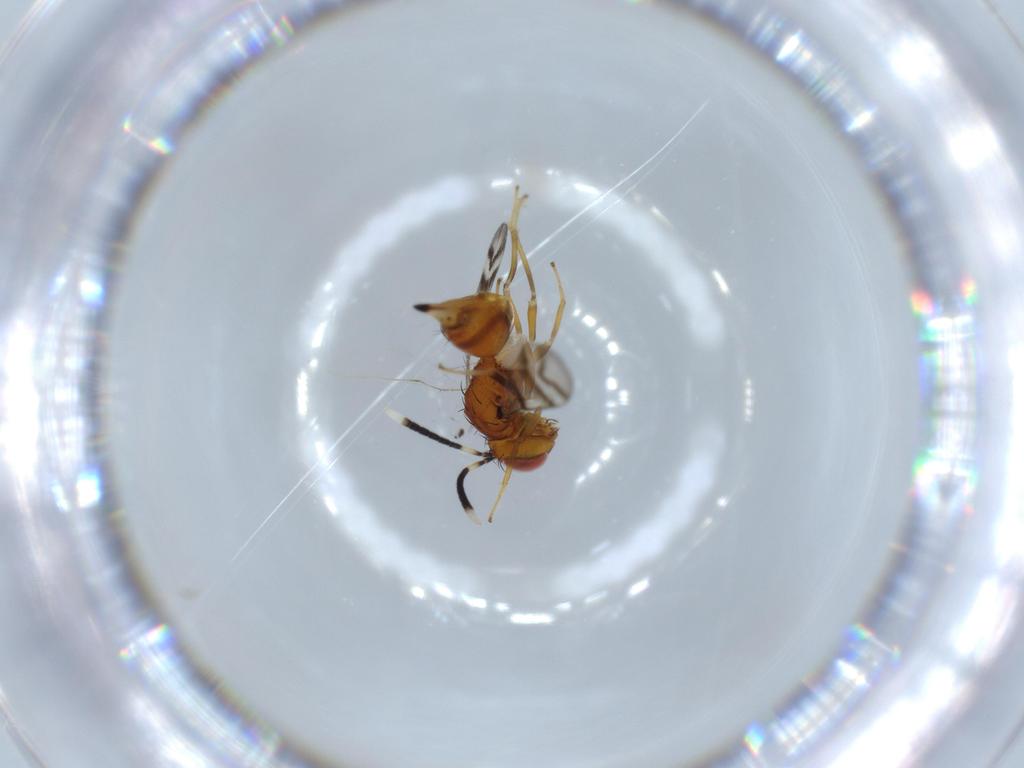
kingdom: Animalia
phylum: Arthropoda
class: Insecta
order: Hymenoptera
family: Diparidae
